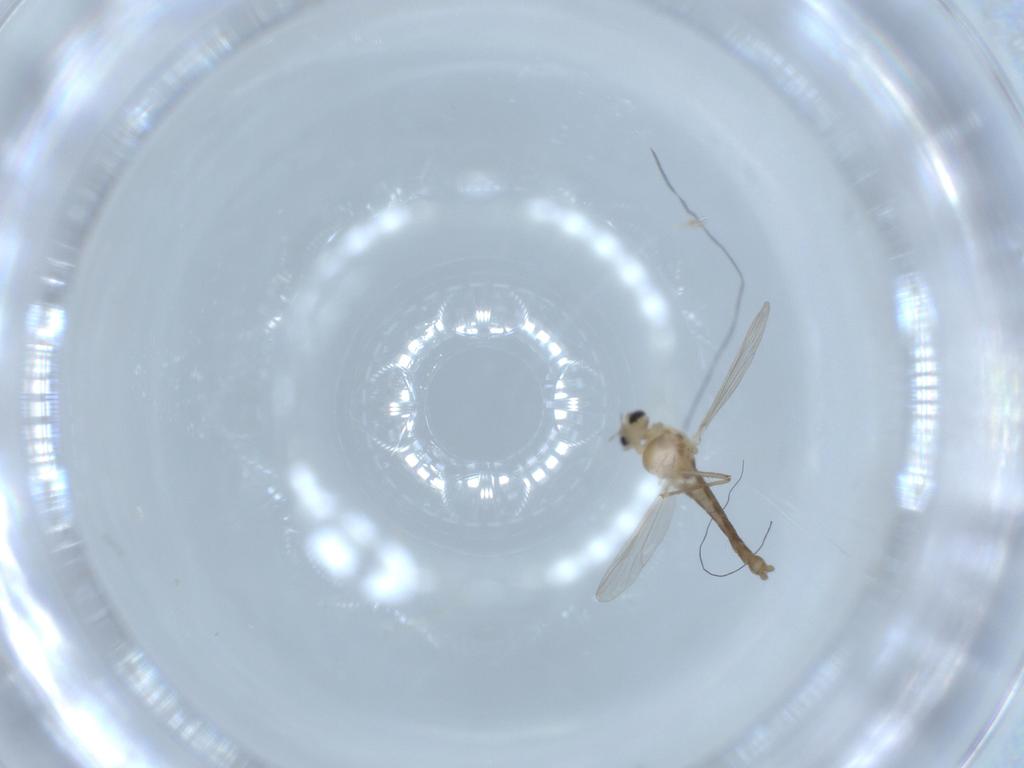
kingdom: Animalia
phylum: Arthropoda
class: Insecta
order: Diptera
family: Chironomidae
